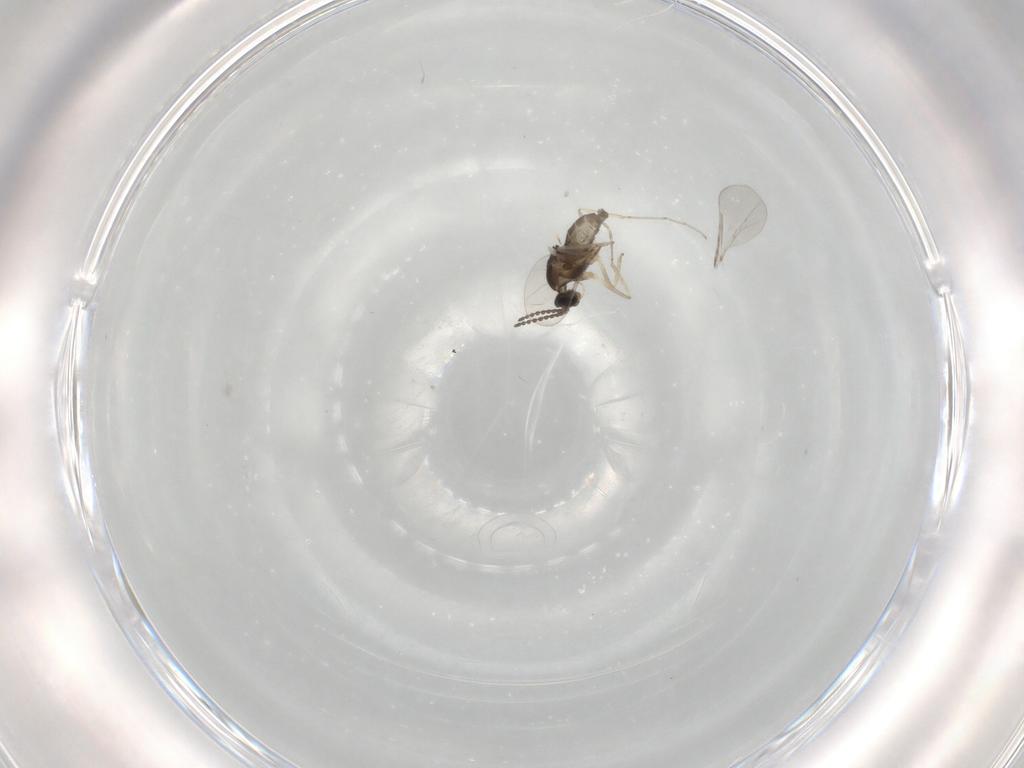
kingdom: Animalia
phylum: Arthropoda
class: Insecta
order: Diptera
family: Cecidomyiidae
